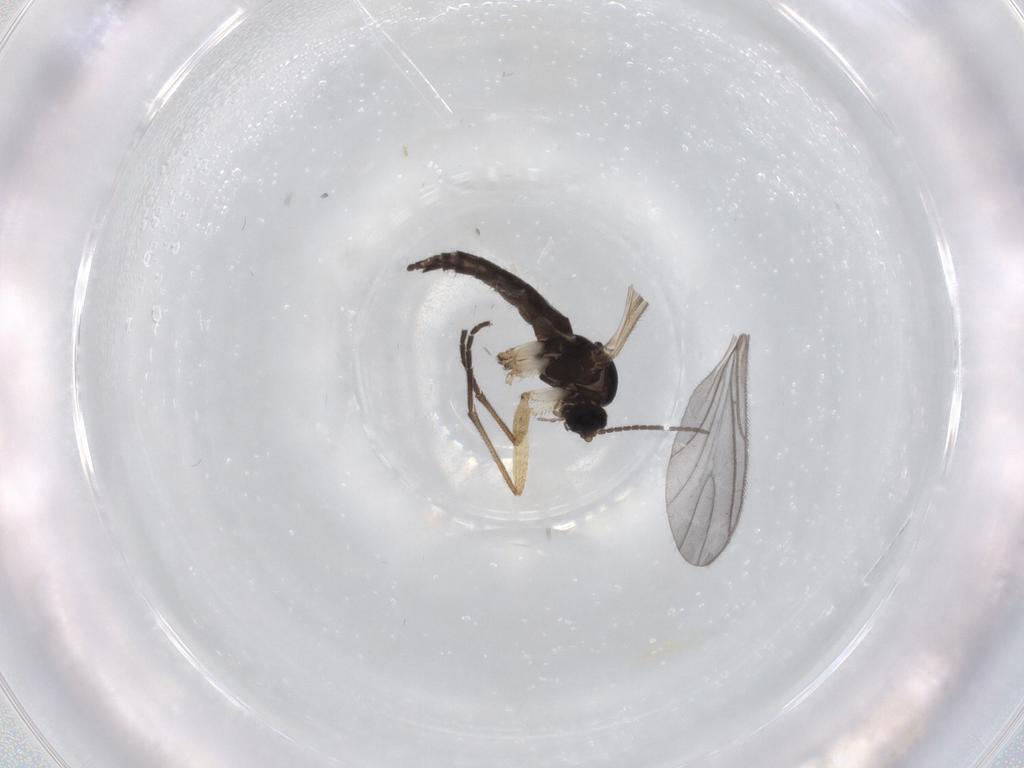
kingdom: Animalia
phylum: Arthropoda
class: Insecta
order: Diptera
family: Sciaridae
